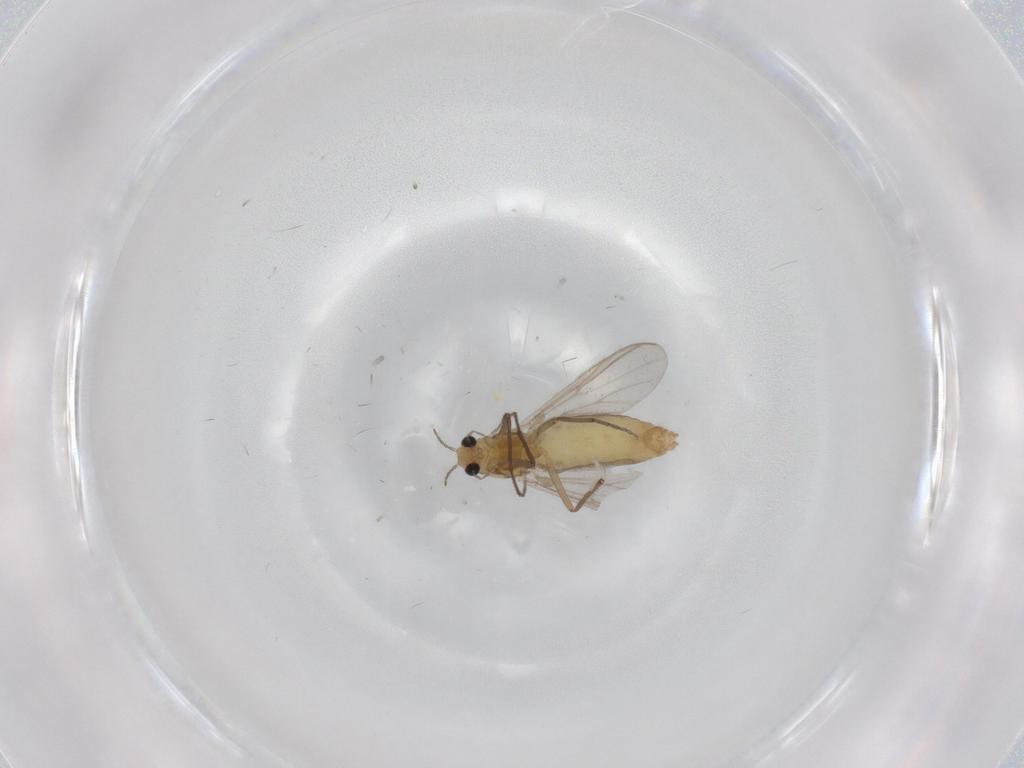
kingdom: Animalia
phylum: Arthropoda
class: Insecta
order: Diptera
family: Chironomidae
